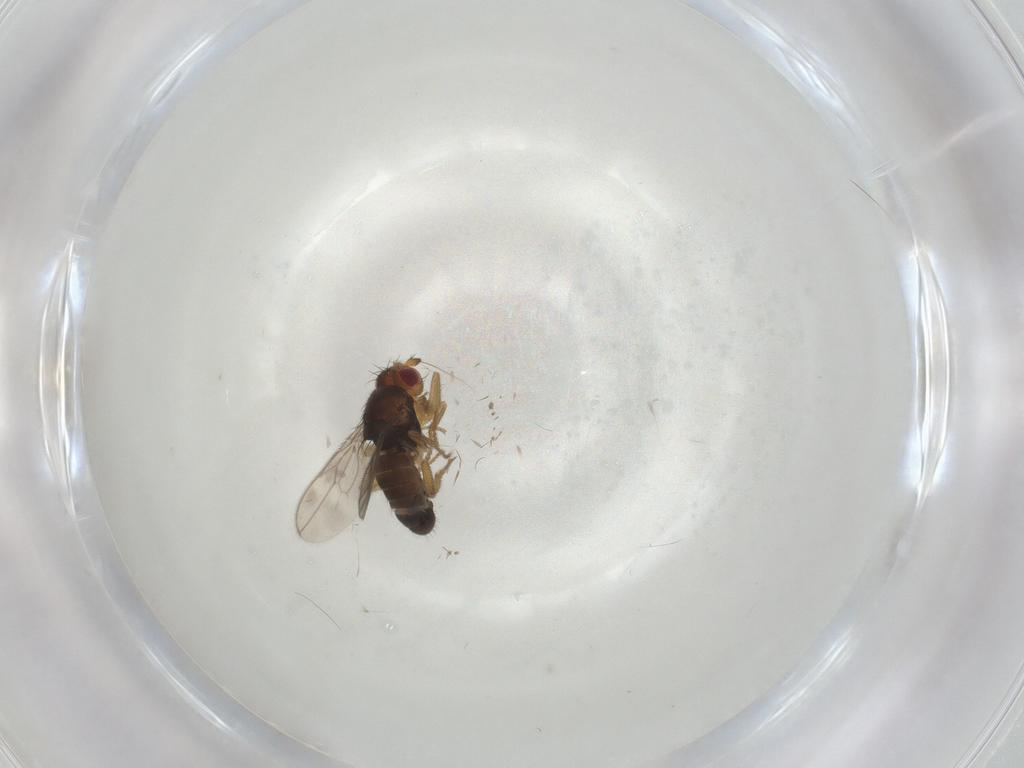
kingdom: Animalia
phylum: Arthropoda
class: Insecta
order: Diptera
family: Sphaeroceridae
